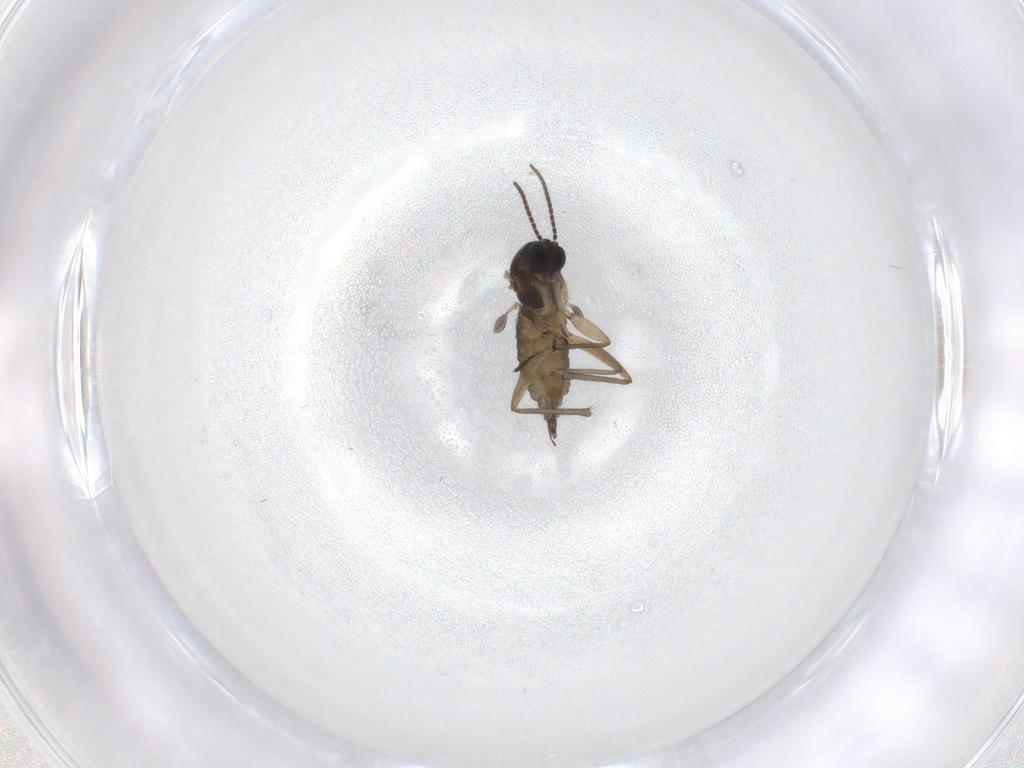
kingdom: Animalia
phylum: Arthropoda
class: Insecta
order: Diptera
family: Sciaridae
